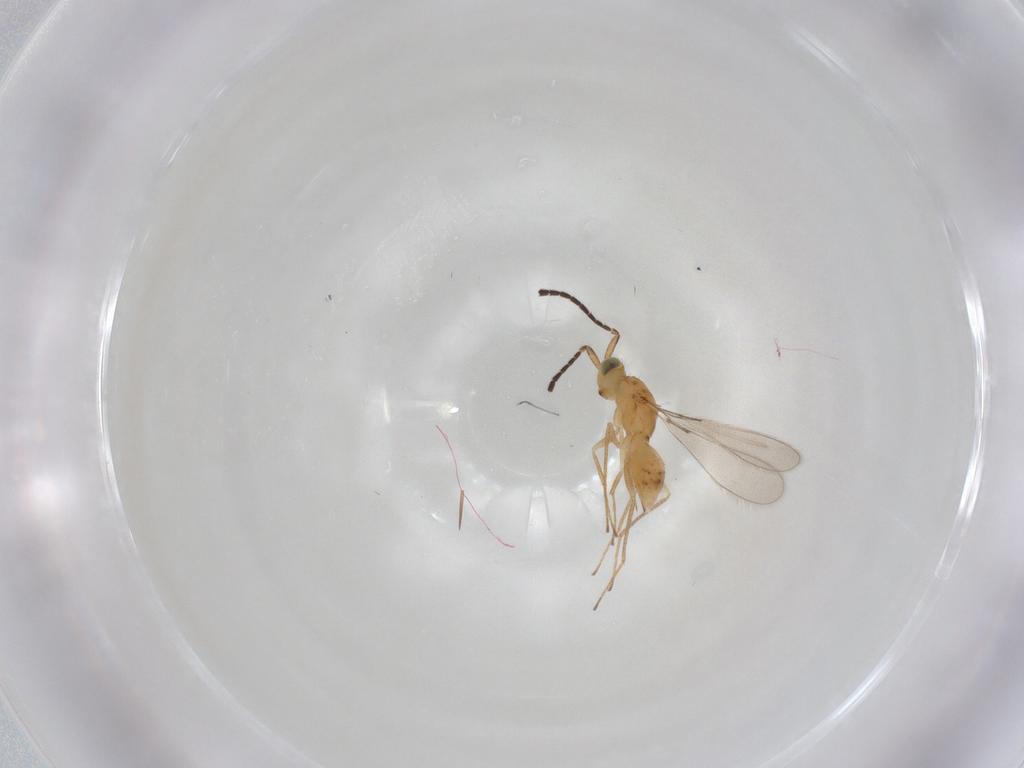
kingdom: Animalia
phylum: Arthropoda
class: Insecta
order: Hymenoptera
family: Mymaridae
